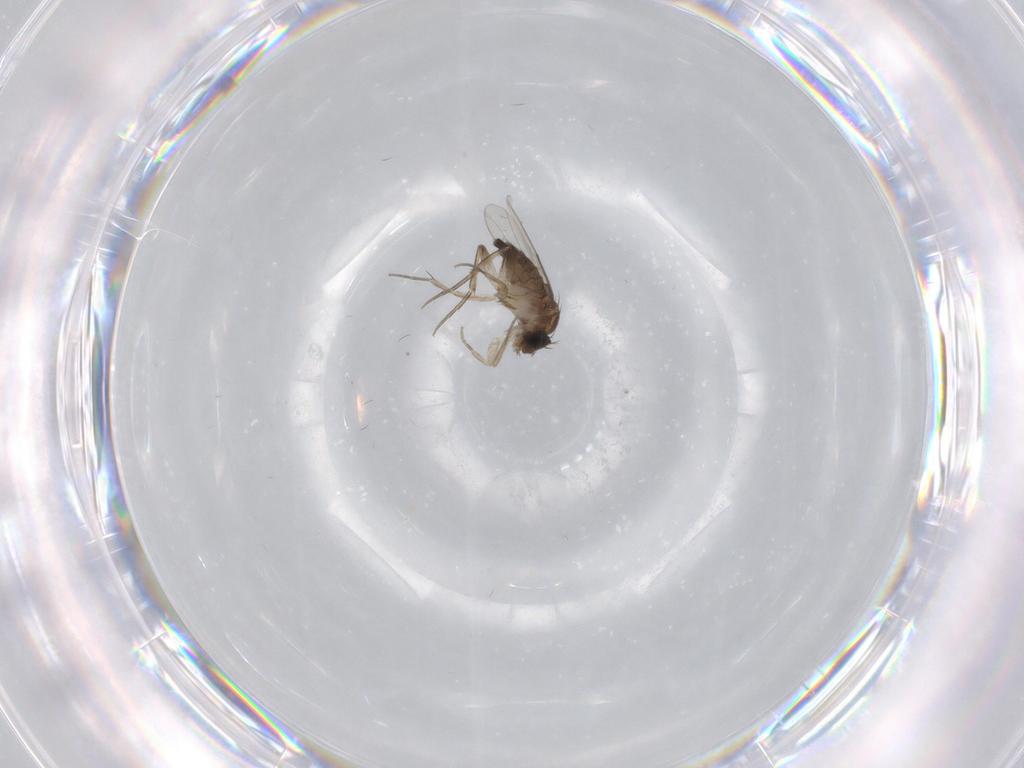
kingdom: Animalia
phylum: Arthropoda
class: Insecta
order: Diptera
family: Phoridae
